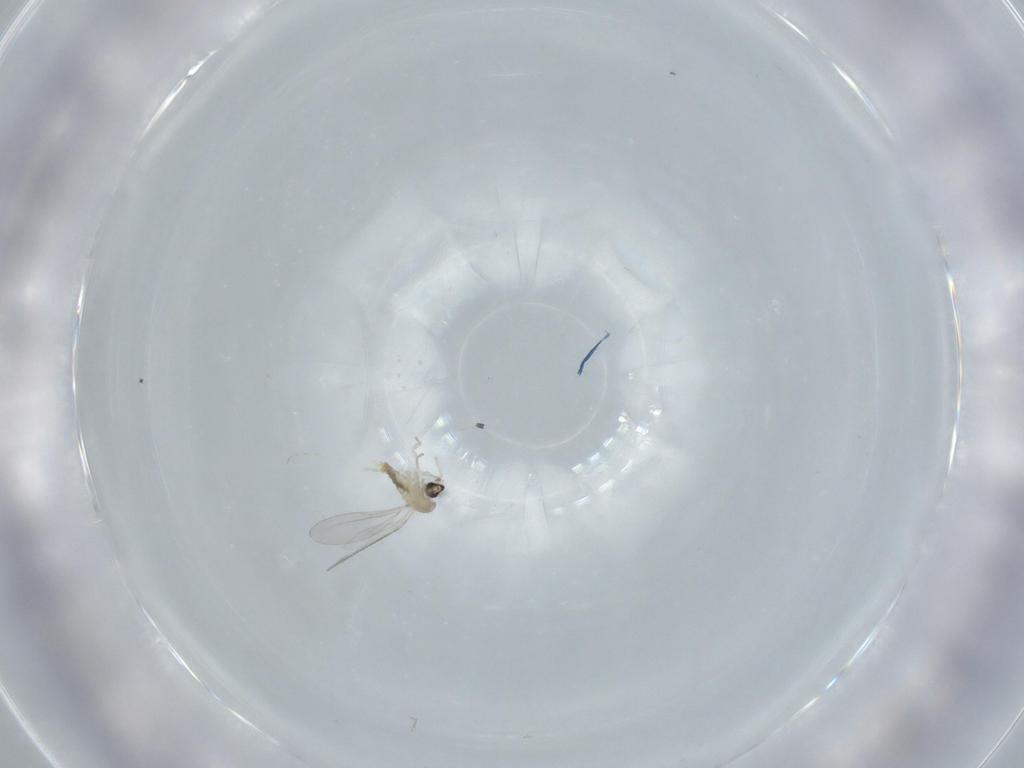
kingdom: Animalia
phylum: Arthropoda
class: Insecta
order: Diptera
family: Cecidomyiidae
